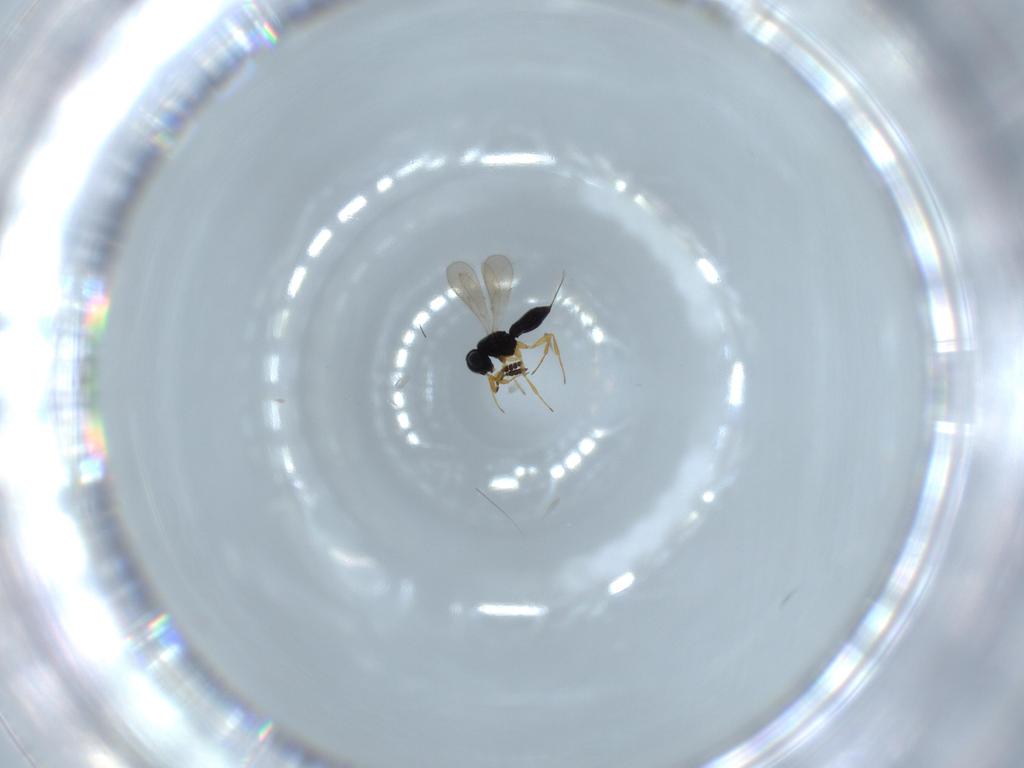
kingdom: Animalia
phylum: Arthropoda
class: Insecta
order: Hymenoptera
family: Scelionidae
